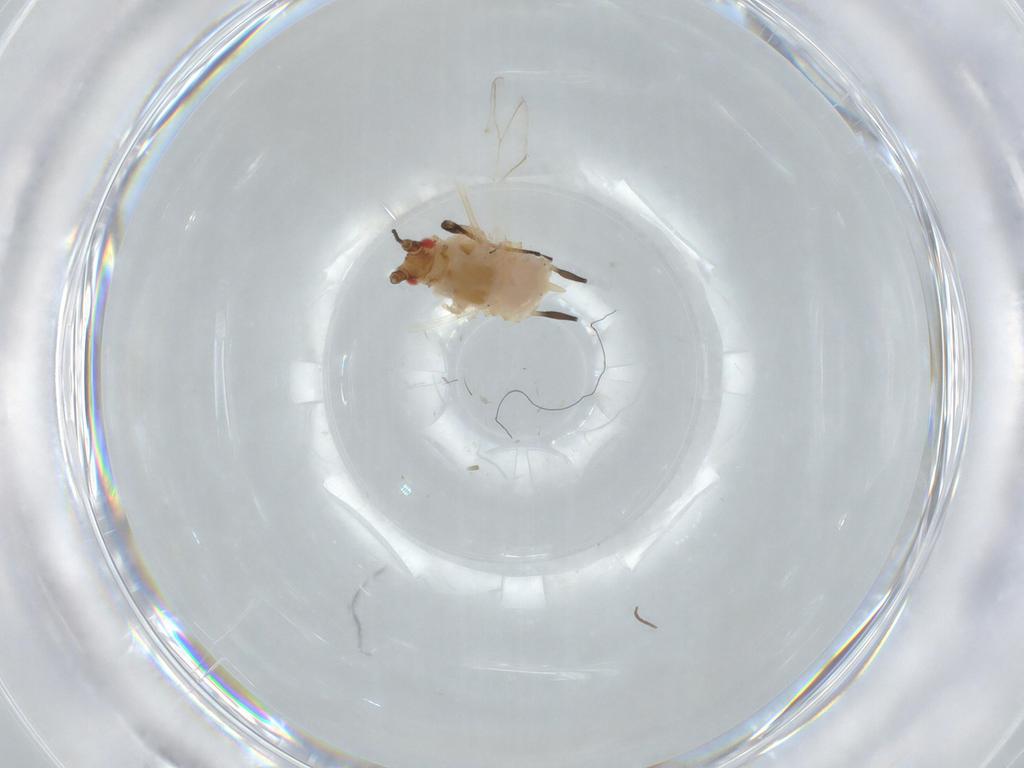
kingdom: Animalia
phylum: Arthropoda
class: Insecta
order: Hemiptera
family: Aphididae
